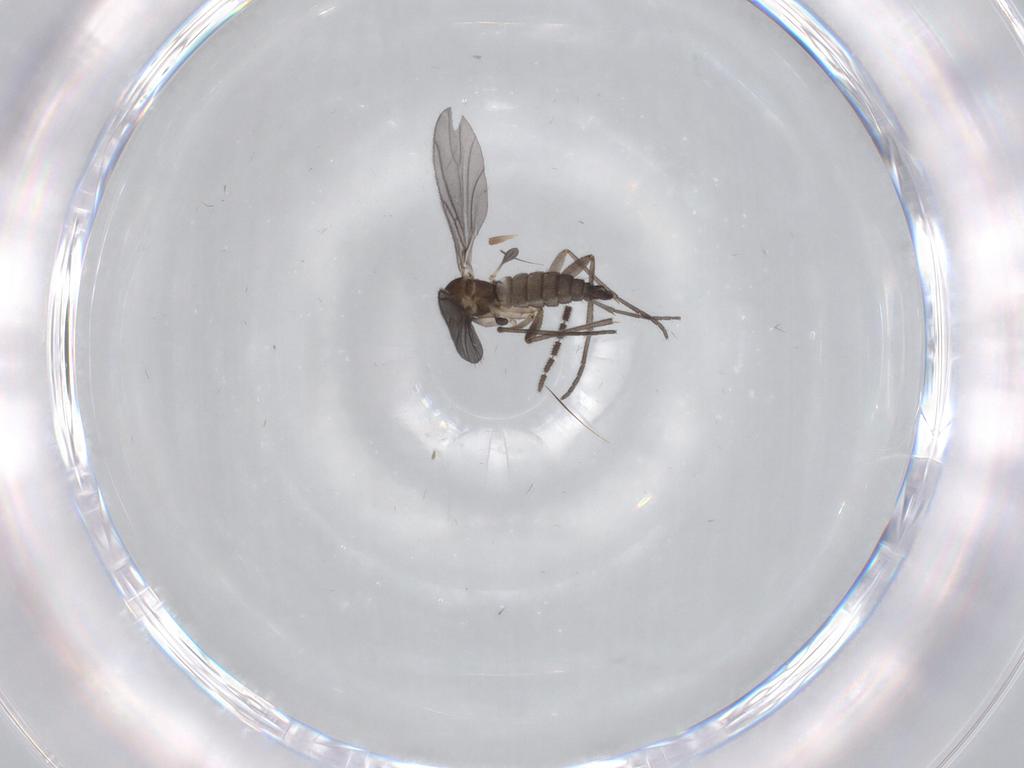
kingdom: Animalia
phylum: Arthropoda
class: Insecta
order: Diptera
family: Sciaridae
